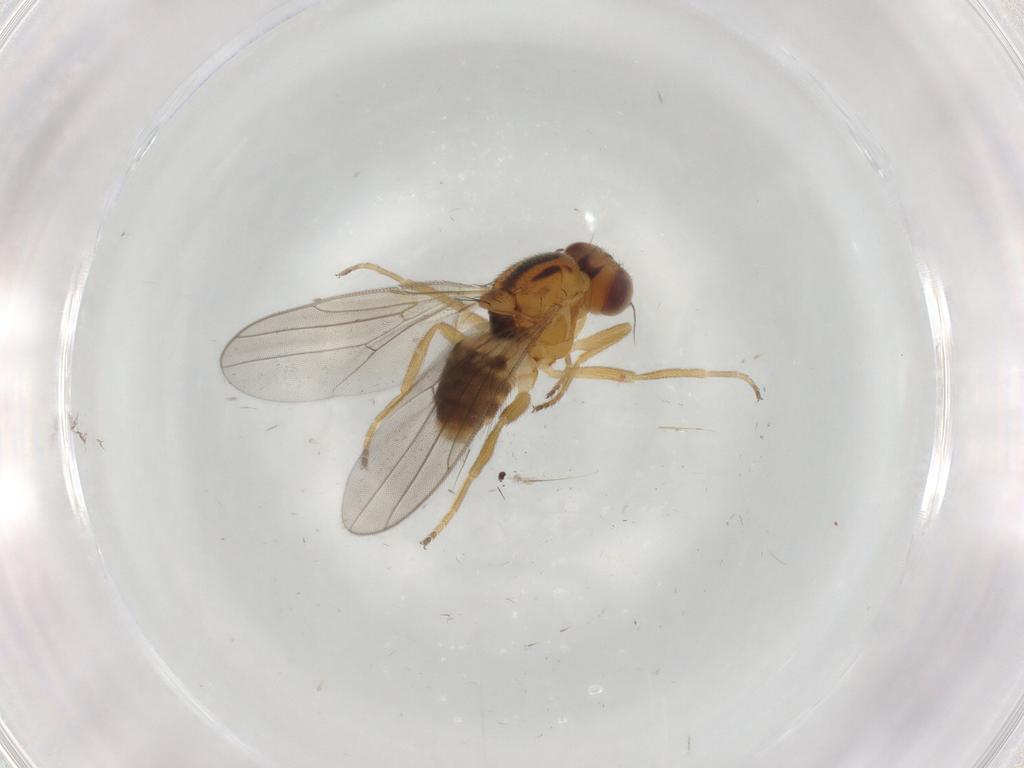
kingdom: Animalia
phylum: Arthropoda
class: Insecta
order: Diptera
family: Chloropidae
